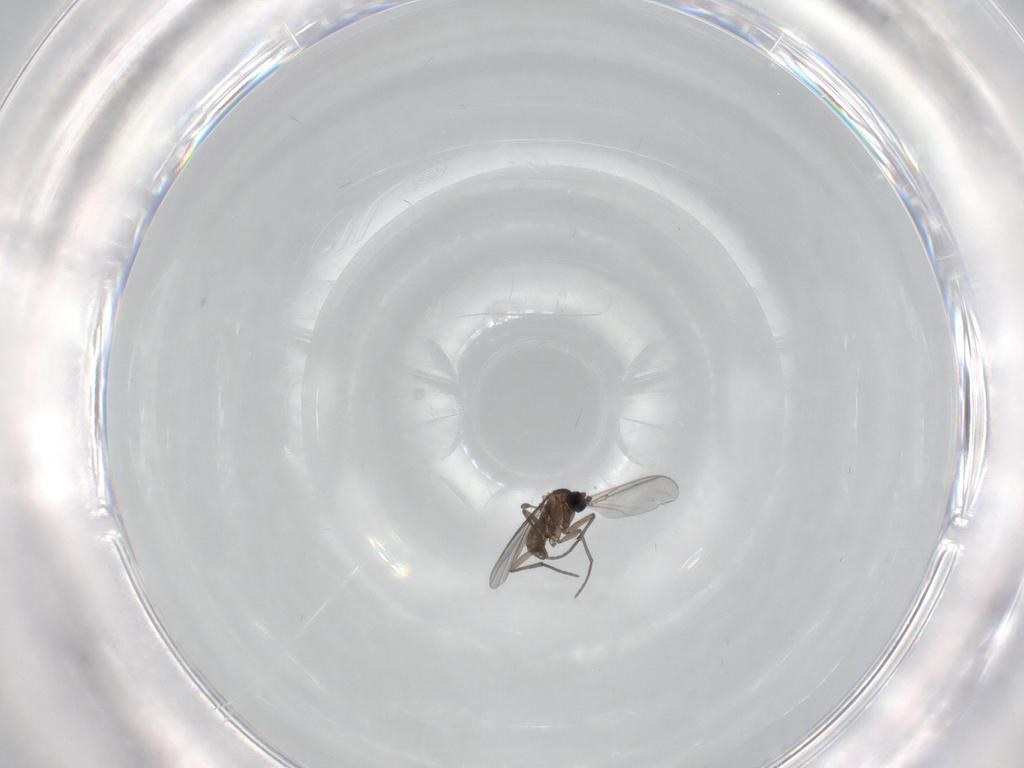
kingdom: Animalia
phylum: Arthropoda
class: Insecta
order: Diptera
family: Sciaridae
